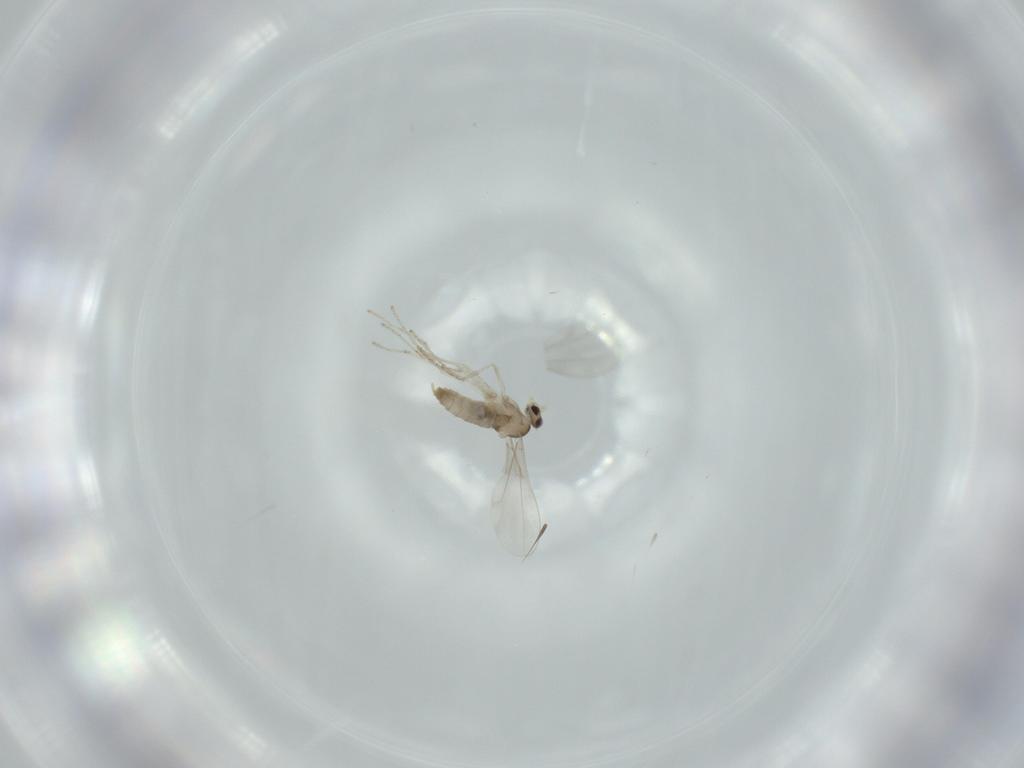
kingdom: Animalia
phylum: Arthropoda
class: Insecta
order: Diptera
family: Cecidomyiidae
